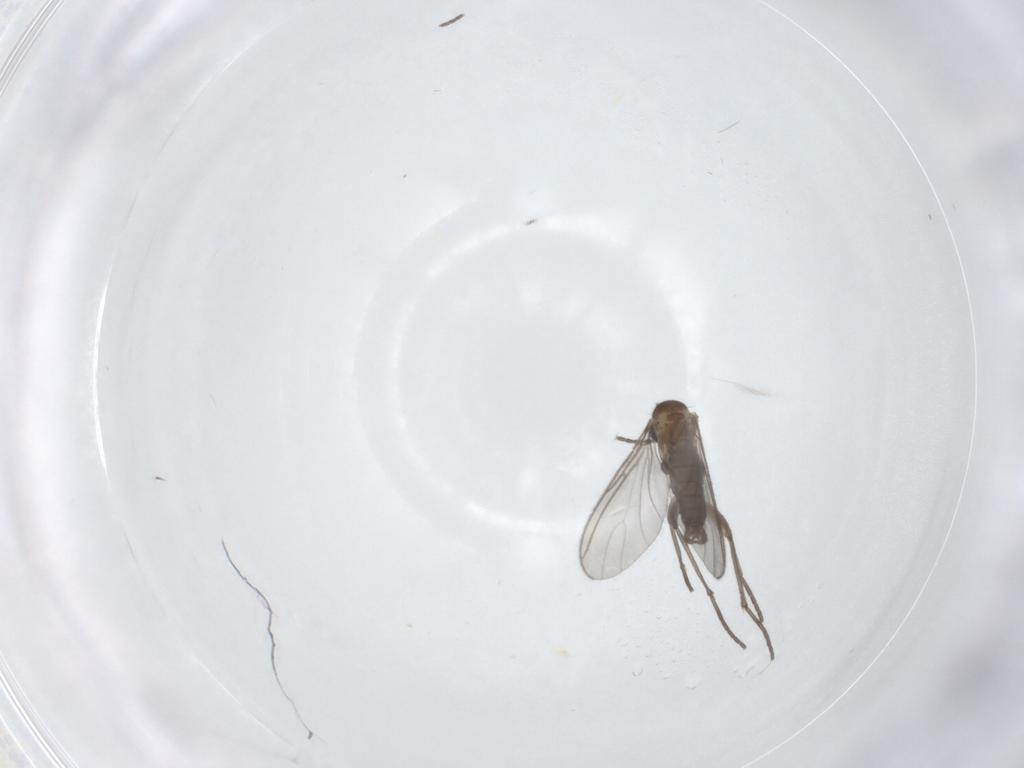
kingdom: Animalia
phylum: Arthropoda
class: Insecta
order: Diptera
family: Sciaridae
